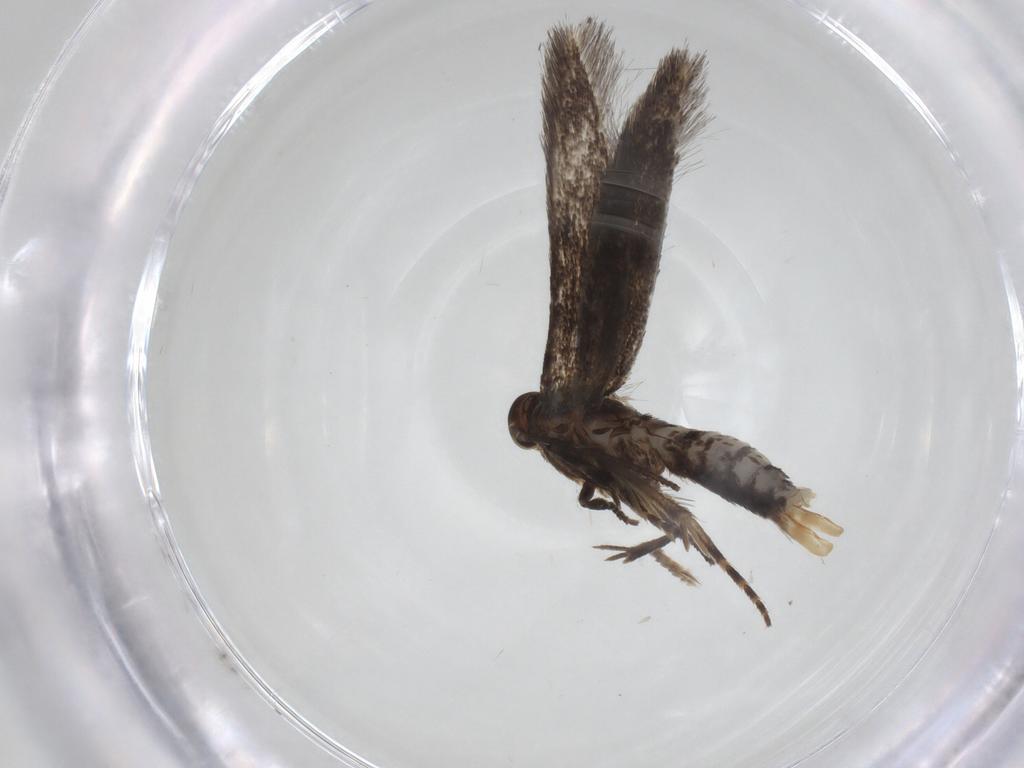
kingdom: Animalia
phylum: Arthropoda
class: Insecta
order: Lepidoptera
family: Elachistidae
